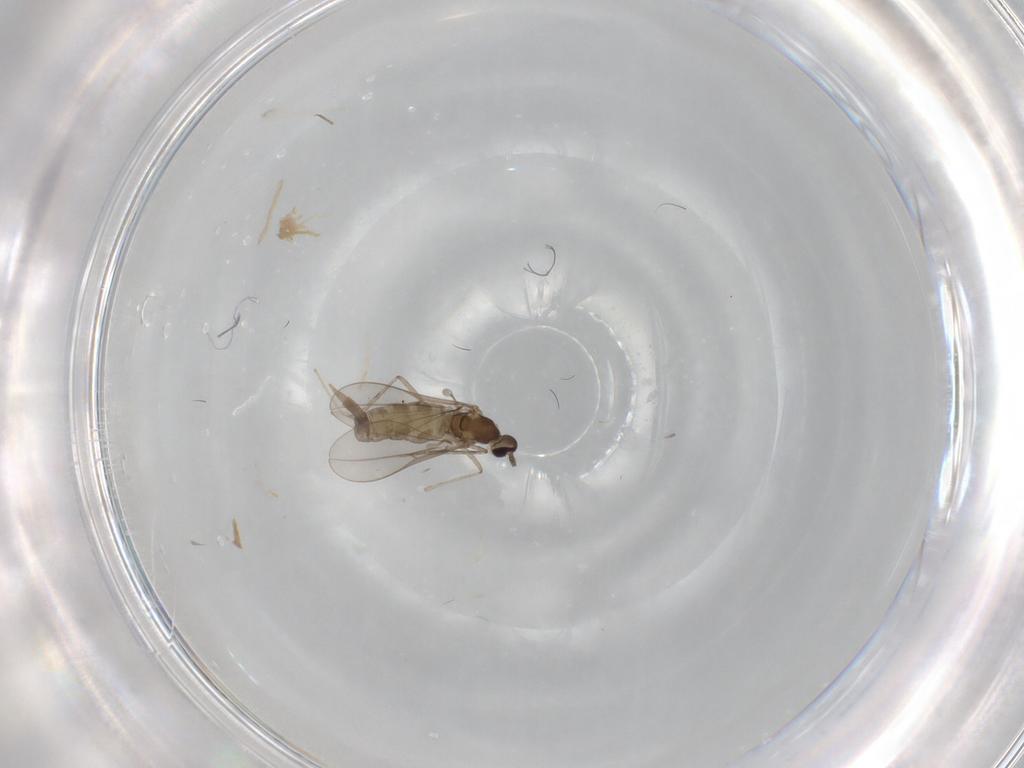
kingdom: Animalia
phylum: Arthropoda
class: Insecta
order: Diptera
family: Cecidomyiidae
